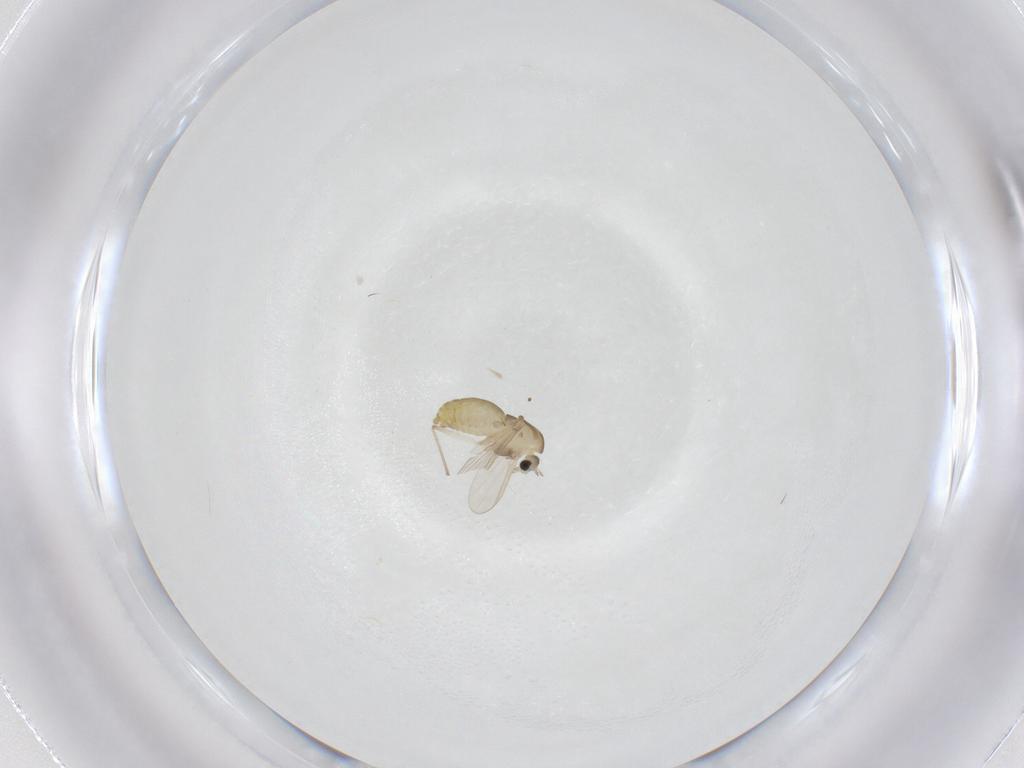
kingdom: Animalia
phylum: Arthropoda
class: Insecta
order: Diptera
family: Chironomidae
